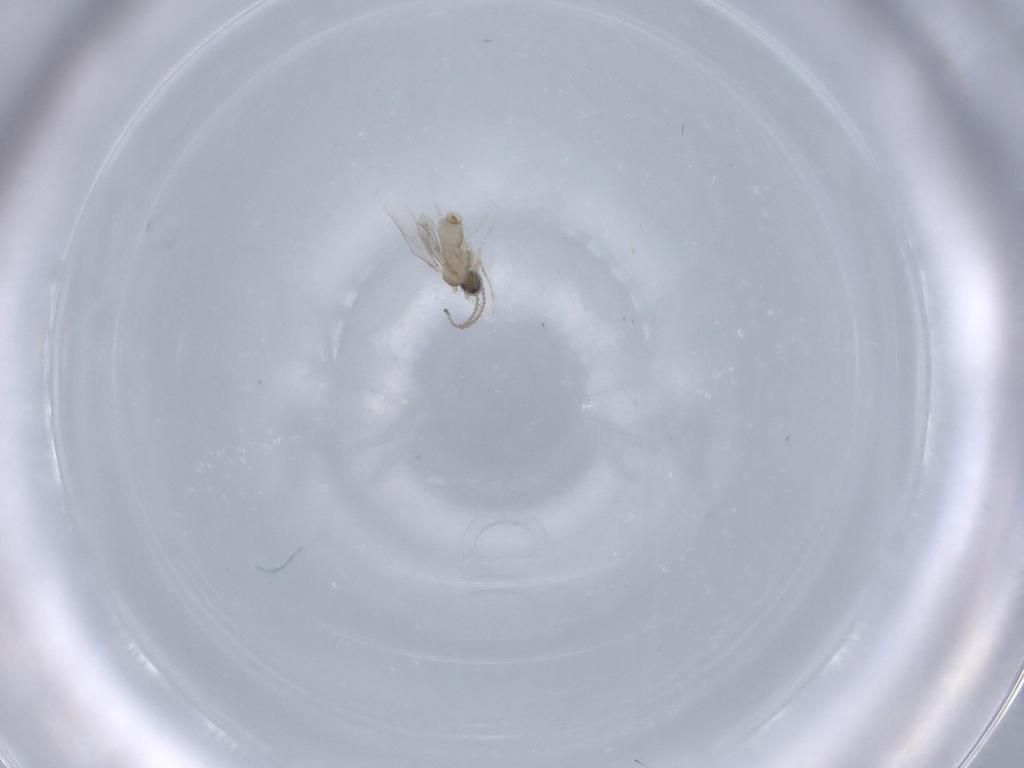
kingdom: Animalia
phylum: Arthropoda
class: Insecta
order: Diptera
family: Cecidomyiidae
